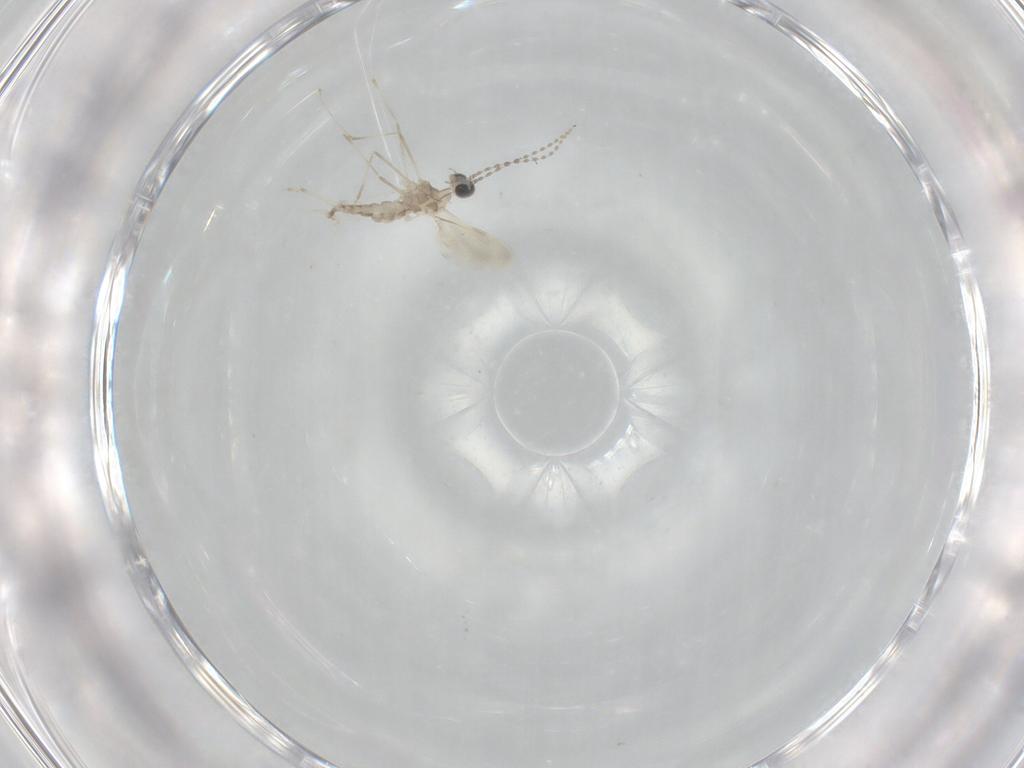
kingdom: Animalia
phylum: Arthropoda
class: Insecta
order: Diptera
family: Cecidomyiidae
